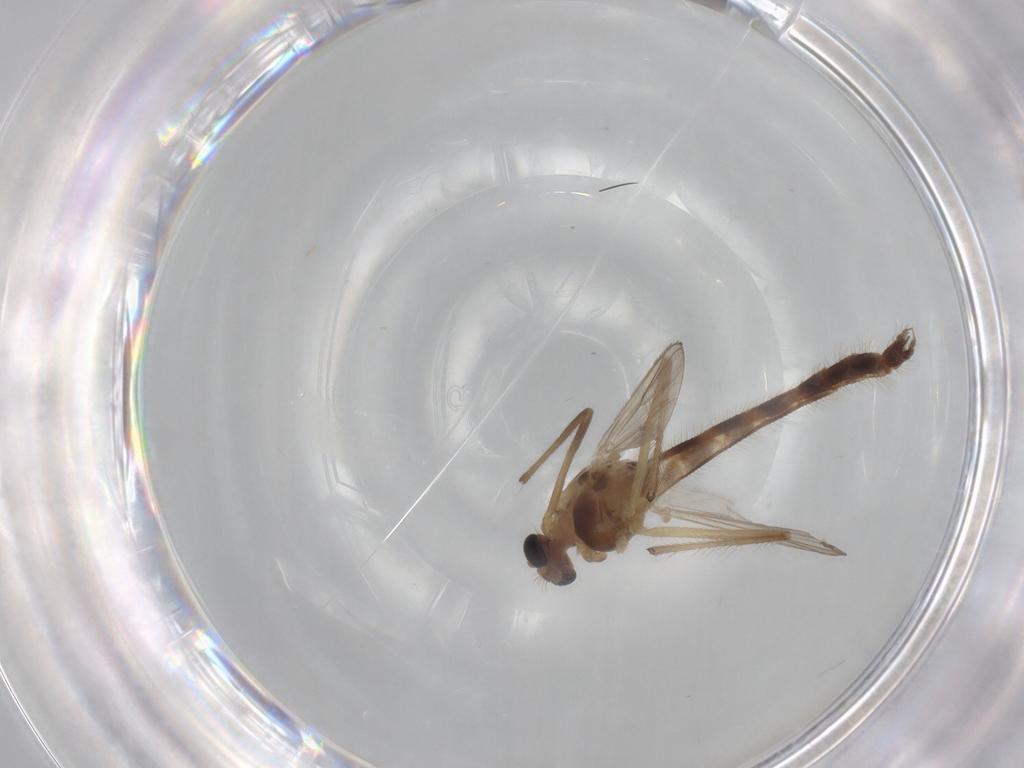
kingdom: Animalia
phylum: Arthropoda
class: Insecta
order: Diptera
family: Chironomidae
